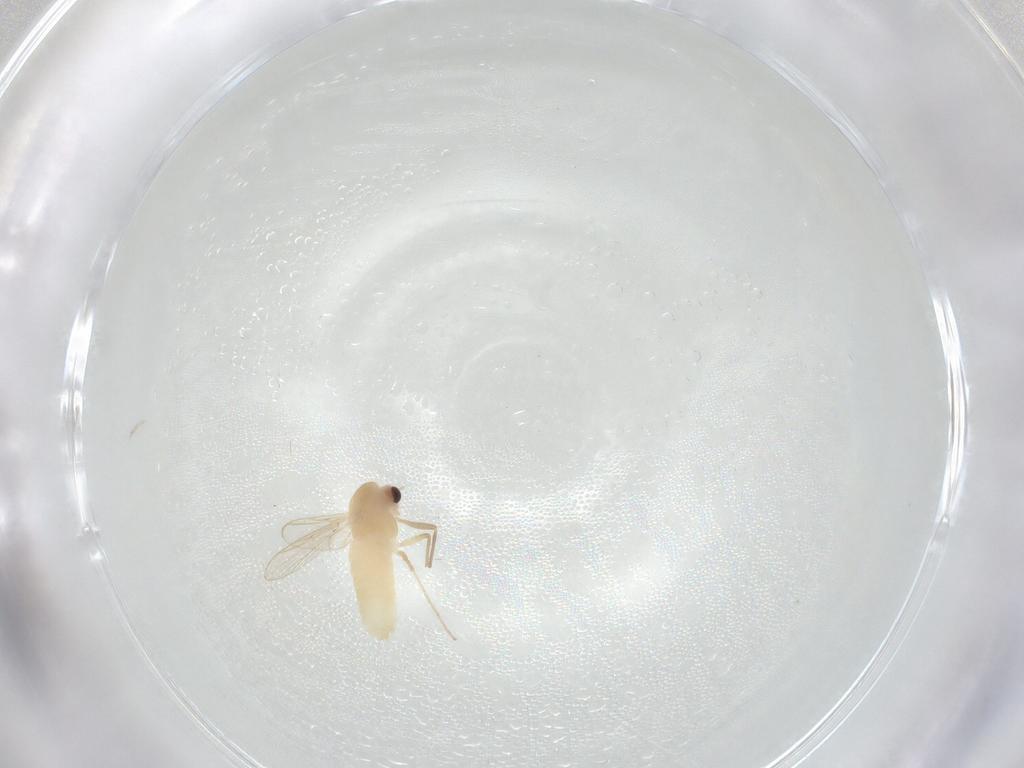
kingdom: Animalia
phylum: Arthropoda
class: Insecta
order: Diptera
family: Chironomidae
